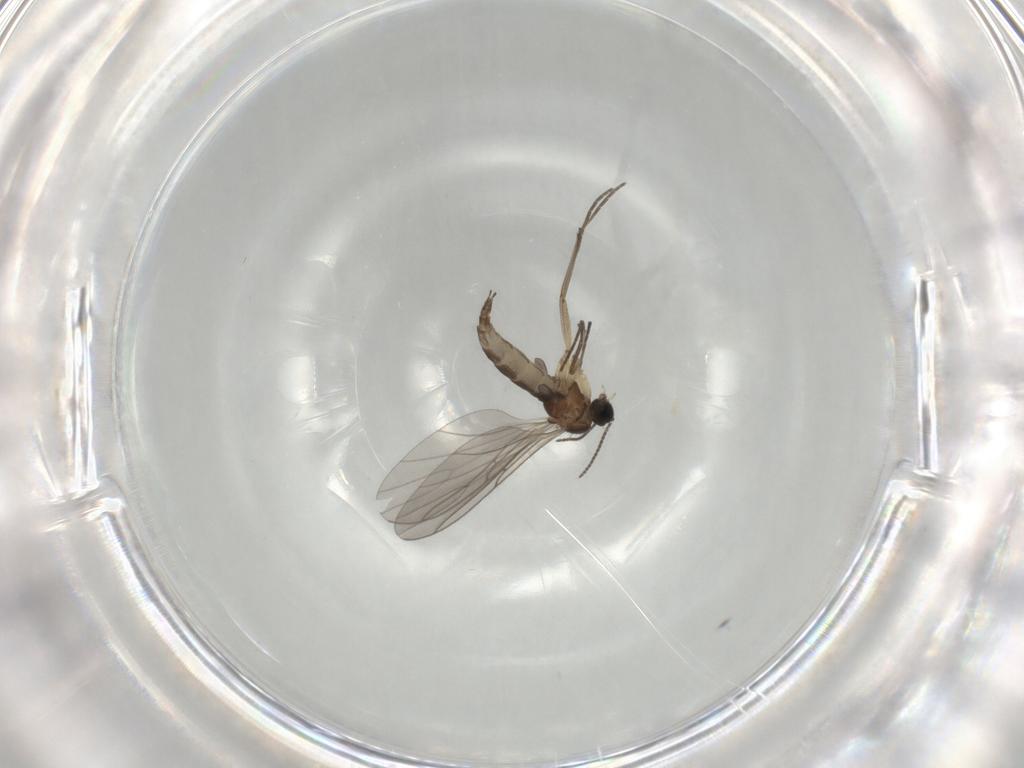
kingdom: Animalia
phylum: Arthropoda
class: Insecta
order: Diptera
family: Sciaridae
